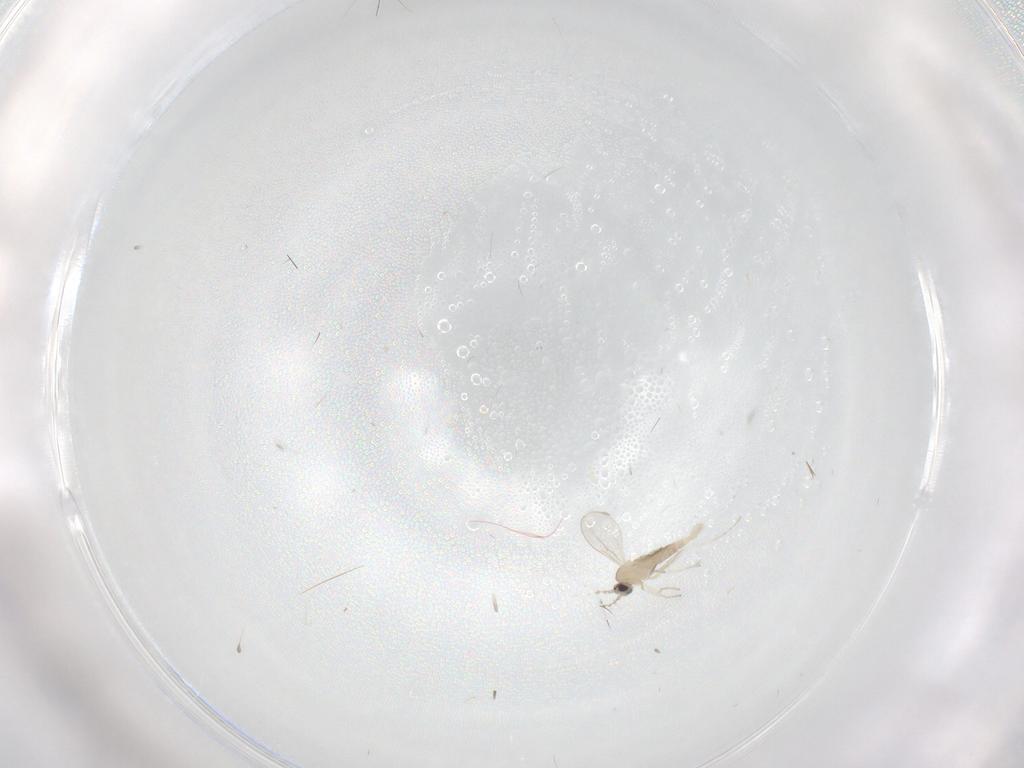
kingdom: Animalia
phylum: Arthropoda
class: Insecta
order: Diptera
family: Cecidomyiidae
